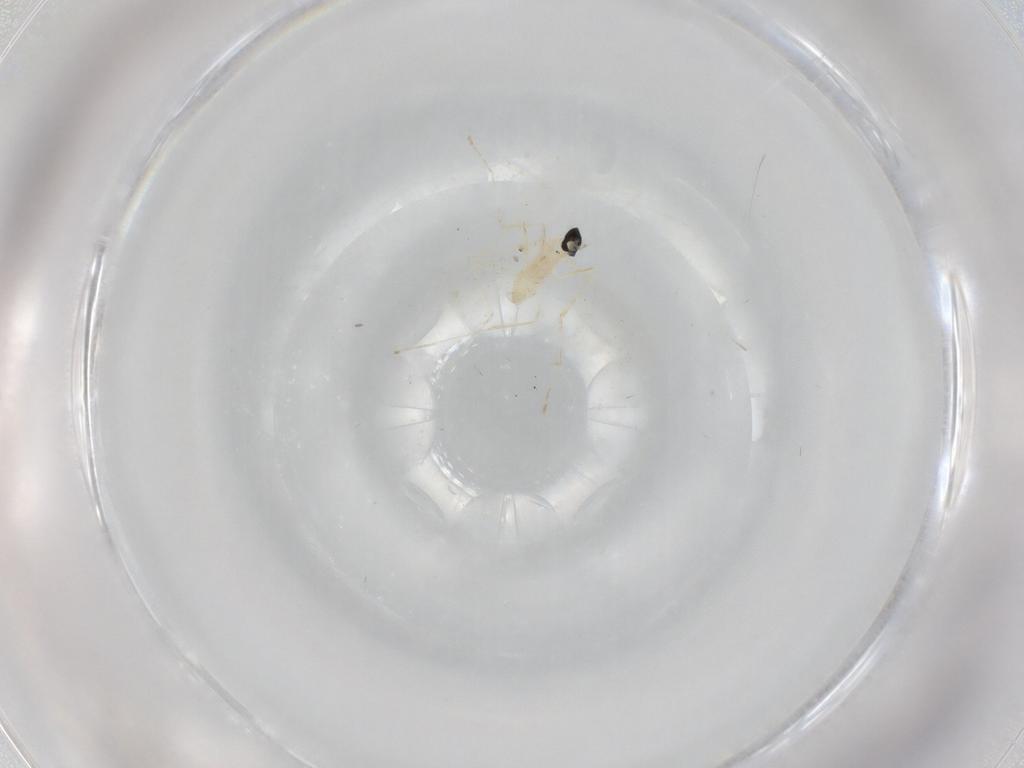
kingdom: Animalia
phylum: Arthropoda
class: Insecta
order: Diptera
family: Cecidomyiidae
